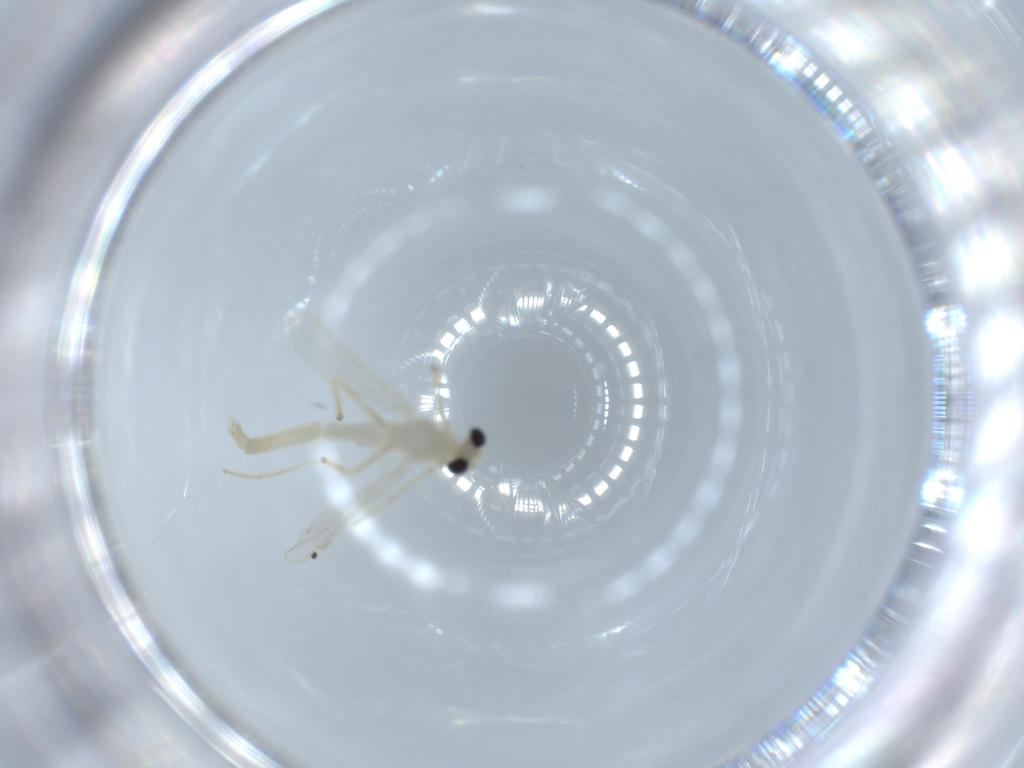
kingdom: Animalia
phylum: Arthropoda
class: Insecta
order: Diptera
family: Chironomidae
